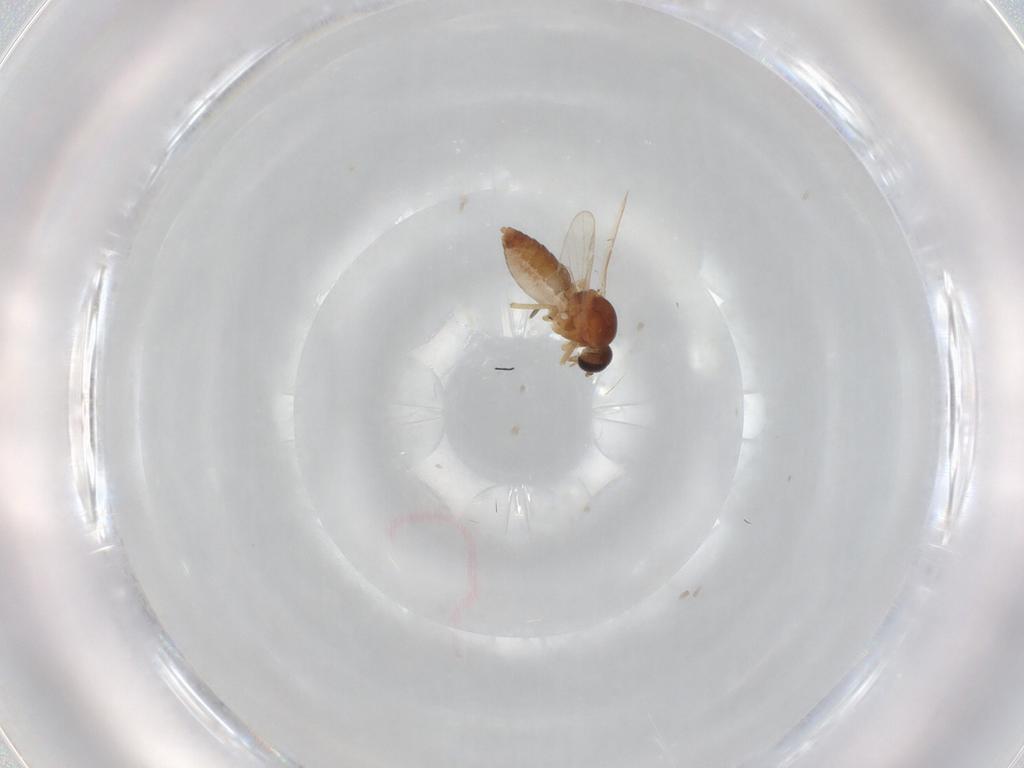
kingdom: Animalia
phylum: Arthropoda
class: Insecta
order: Diptera
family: Ceratopogonidae
